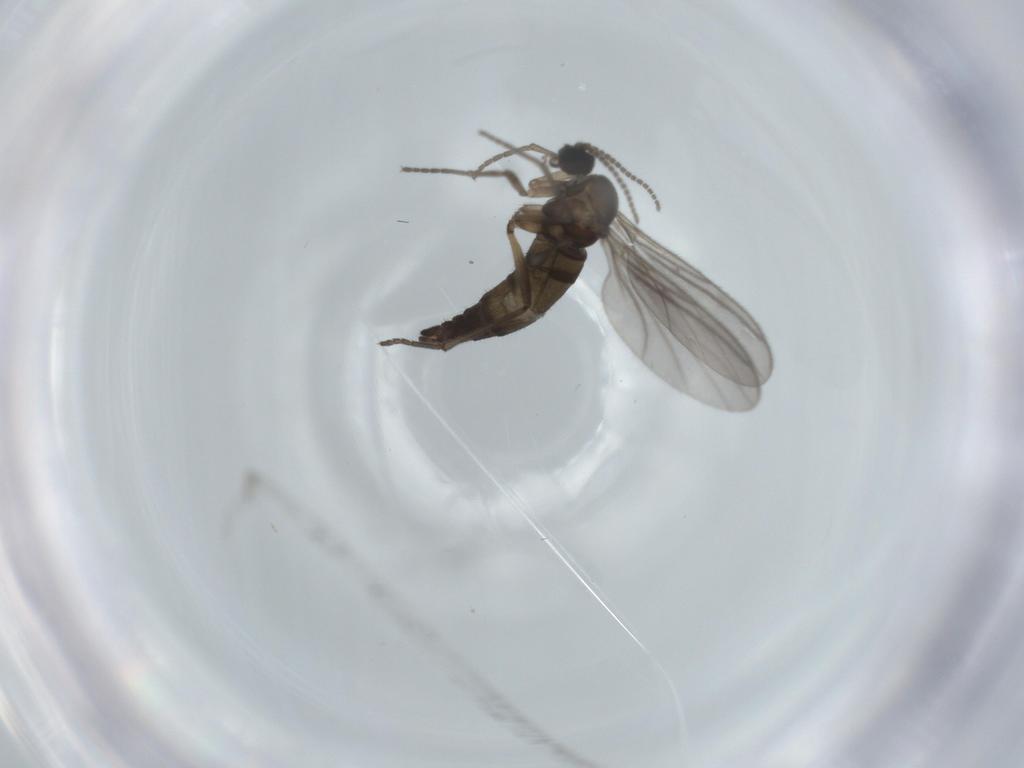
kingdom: Animalia
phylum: Arthropoda
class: Insecta
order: Diptera
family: Sciaridae
